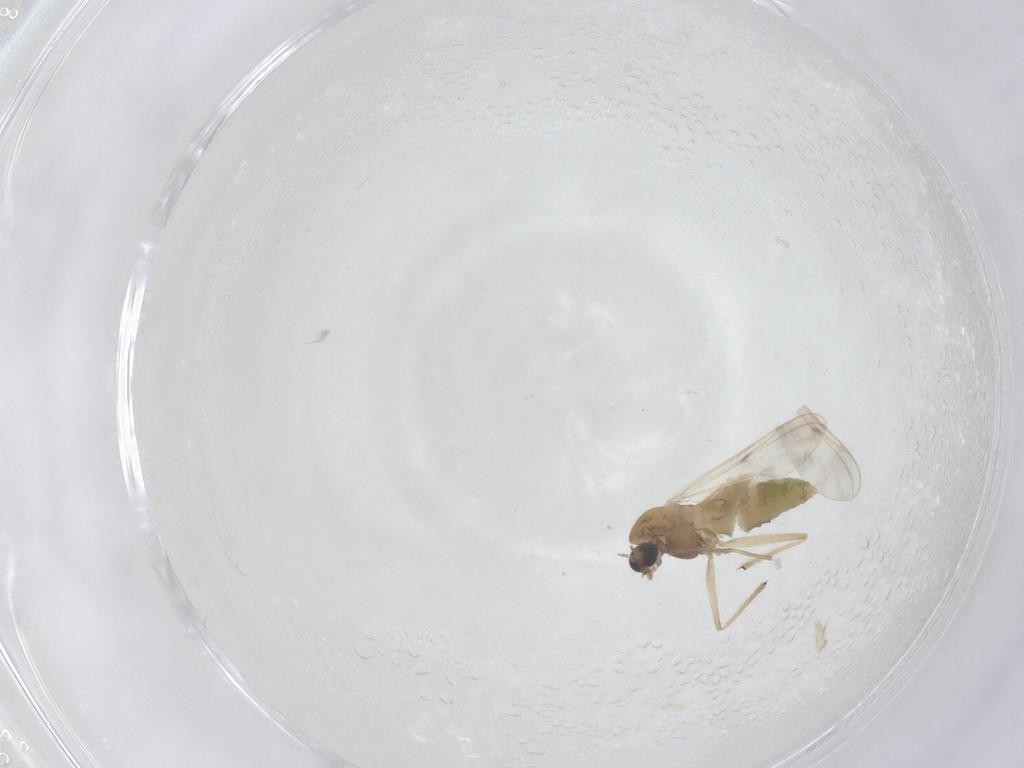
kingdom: Animalia
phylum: Arthropoda
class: Insecta
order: Diptera
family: Chironomidae
